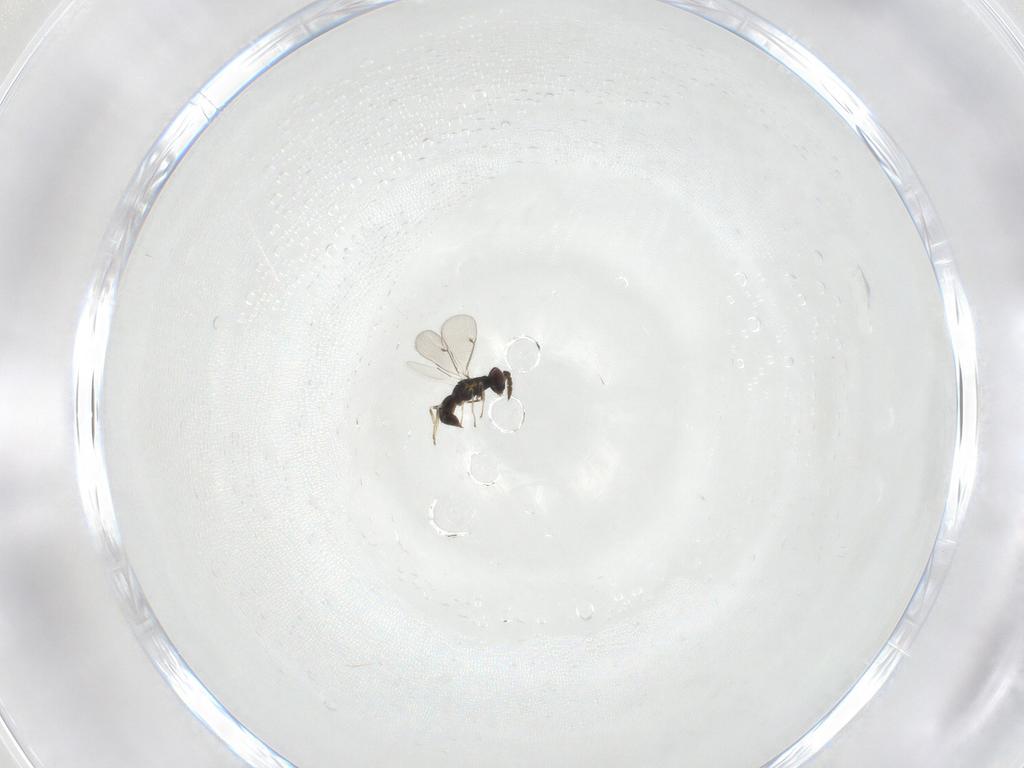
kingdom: Animalia
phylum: Arthropoda
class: Insecta
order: Hymenoptera
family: Eulophidae
